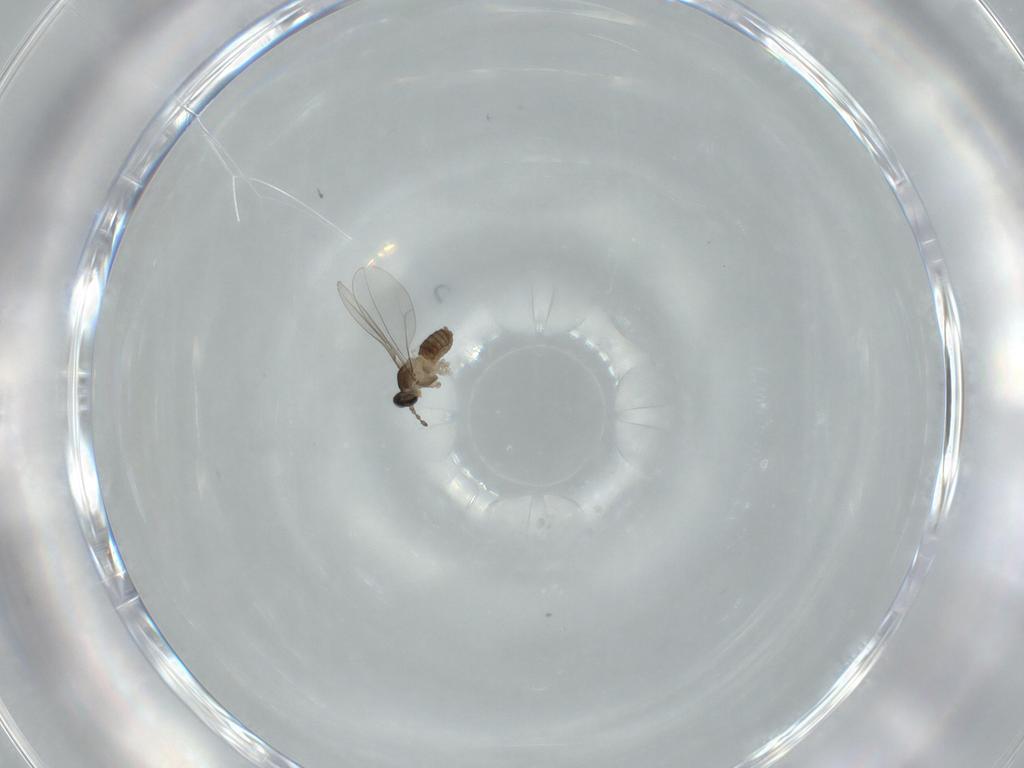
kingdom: Animalia
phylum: Arthropoda
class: Insecta
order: Diptera
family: Cecidomyiidae
